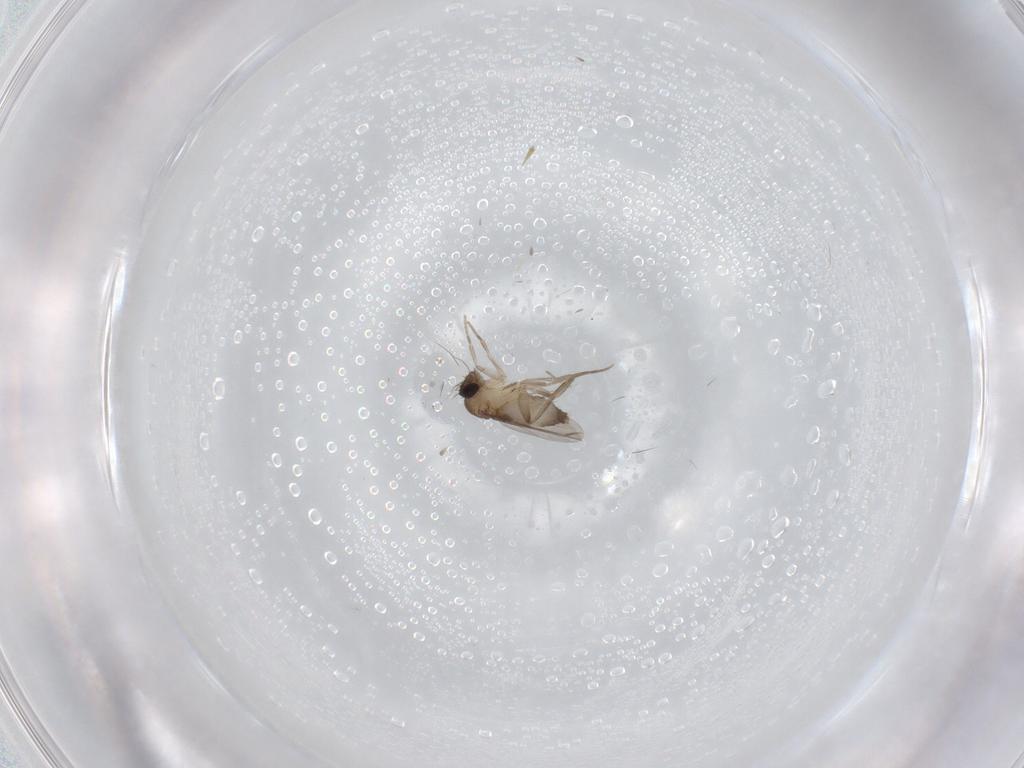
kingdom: Animalia
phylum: Arthropoda
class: Insecta
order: Diptera
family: Phoridae
